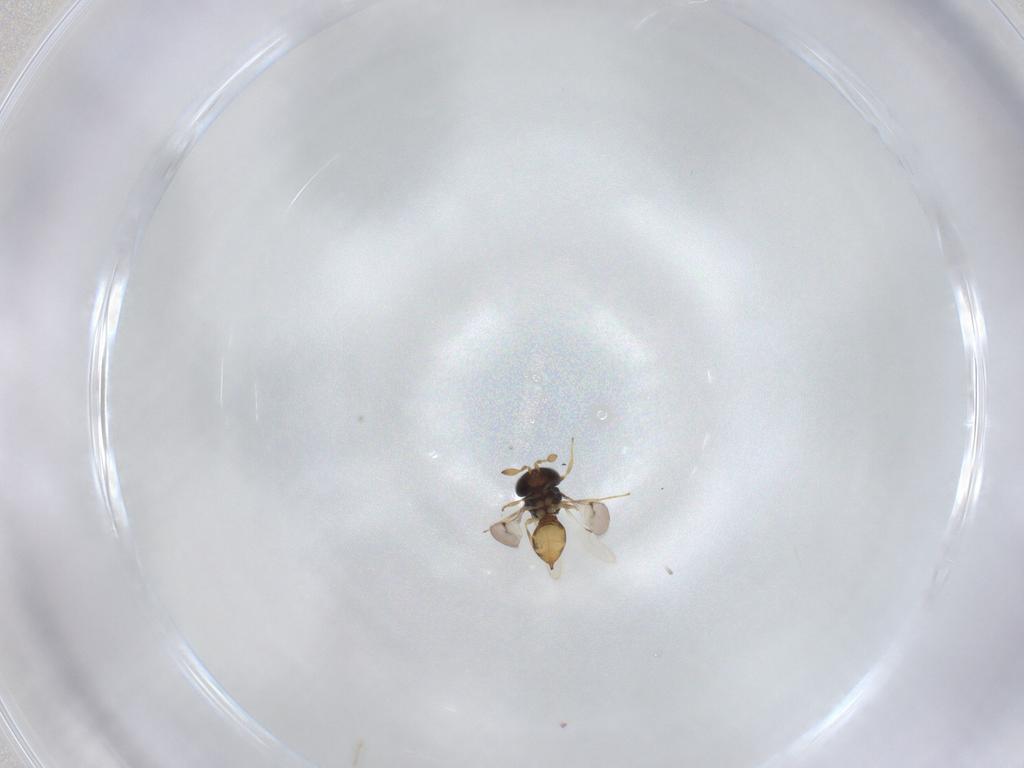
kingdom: Animalia
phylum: Arthropoda
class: Insecta
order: Hymenoptera
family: Scelionidae
